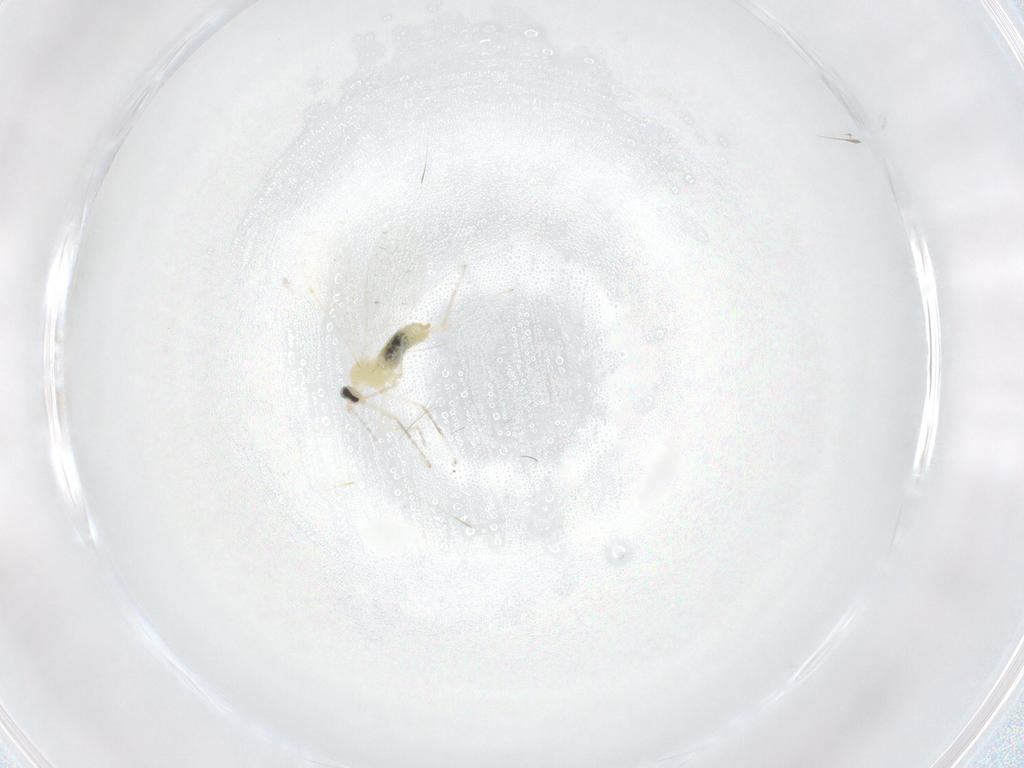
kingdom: Animalia
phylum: Arthropoda
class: Insecta
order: Diptera
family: Cecidomyiidae
